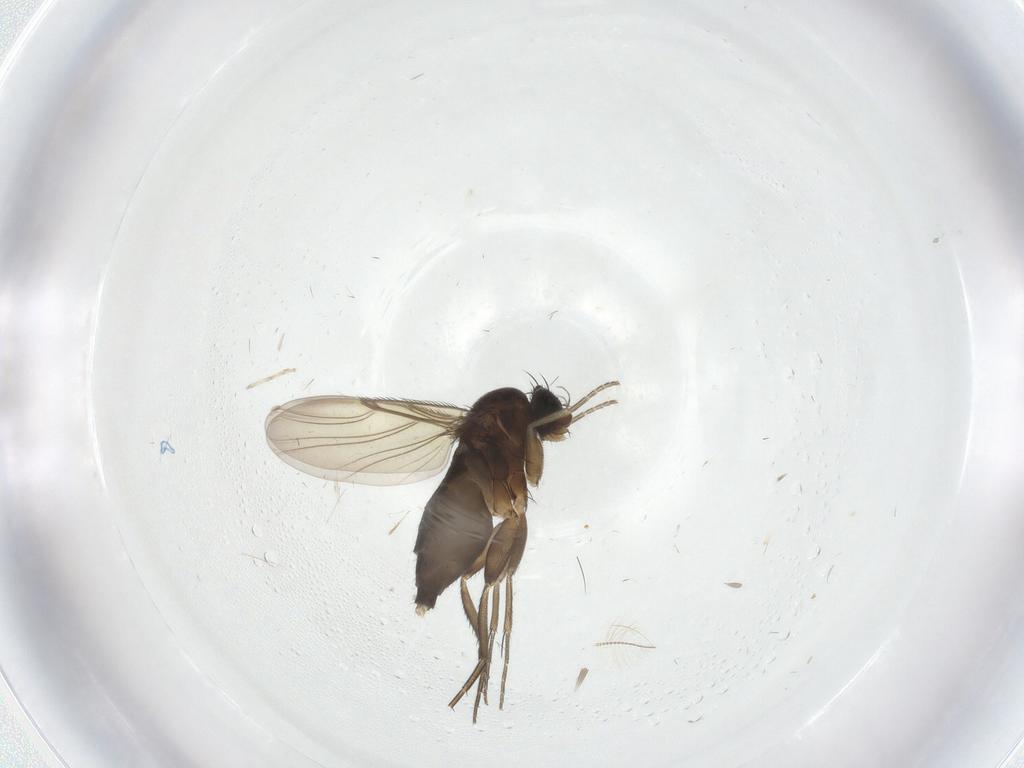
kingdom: Animalia
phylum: Arthropoda
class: Insecta
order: Diptera
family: Phoridae
